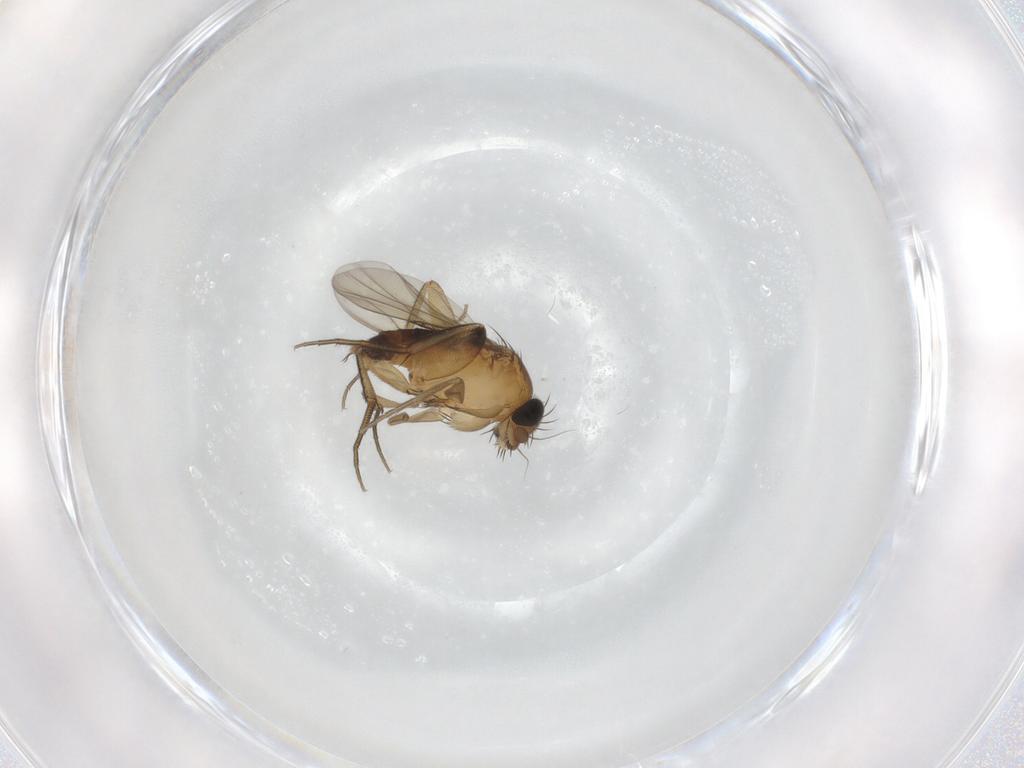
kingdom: Animalia
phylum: Arthropoda
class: Insecta
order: Diptera
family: Phoridae
